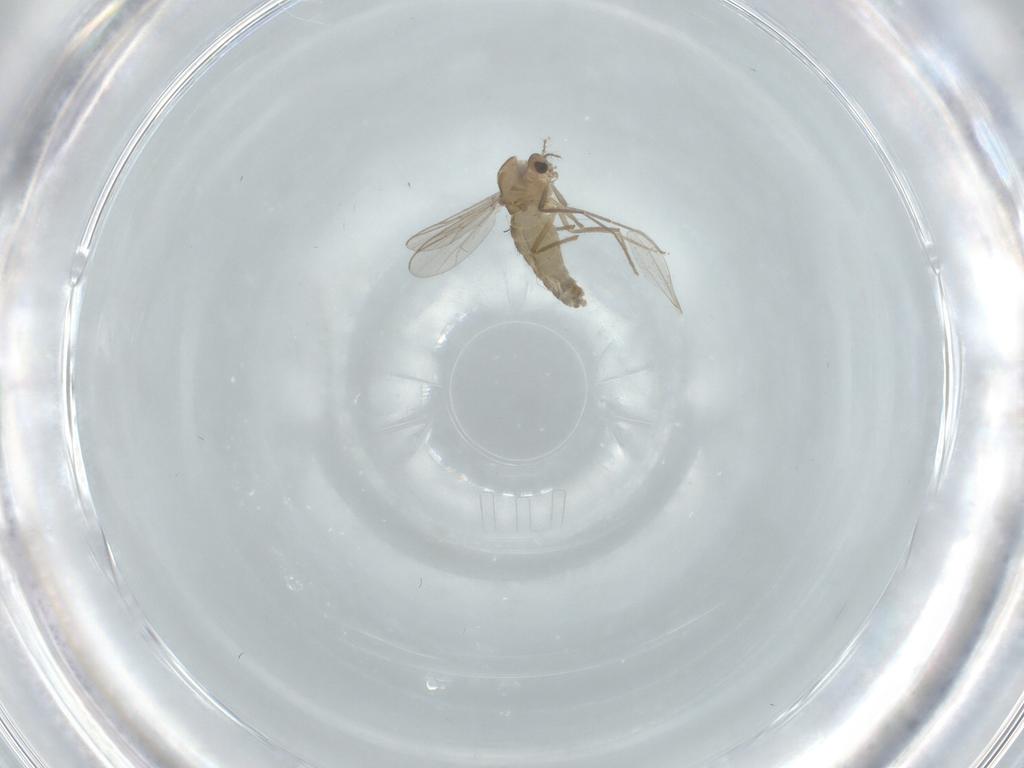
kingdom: Animalia
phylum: Arthropoda
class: Insecta
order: Diptera
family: Chironomidae
